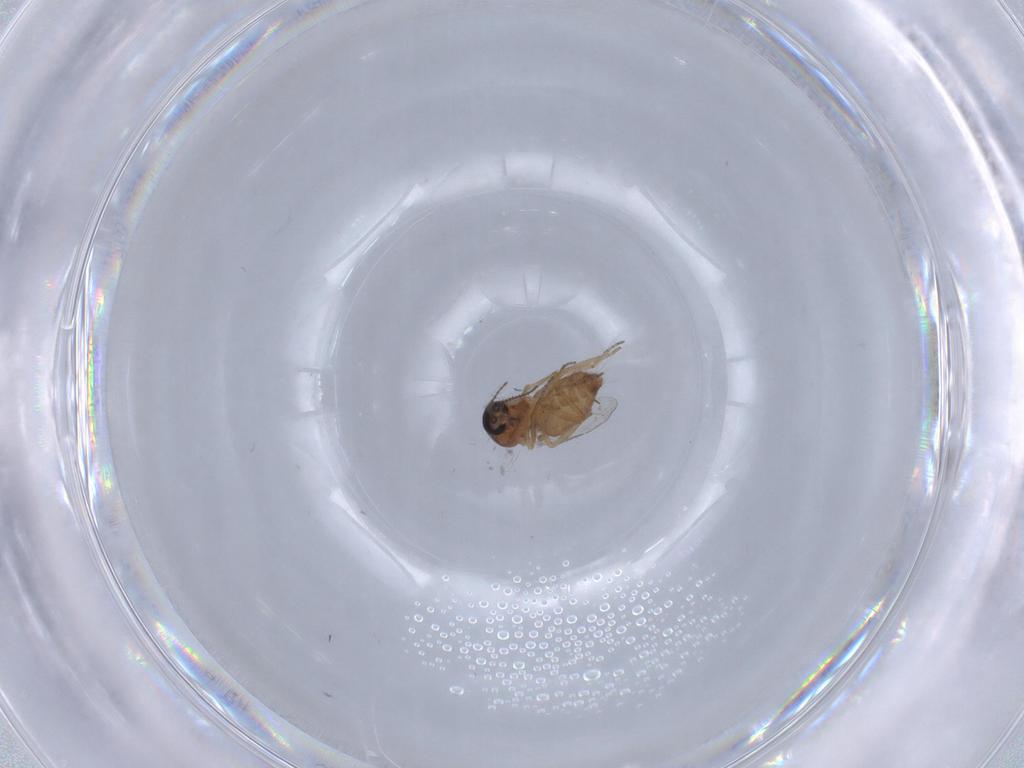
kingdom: Animalia
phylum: Arthropoda
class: Insecta
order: Diptera
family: Ceratopogonidae
